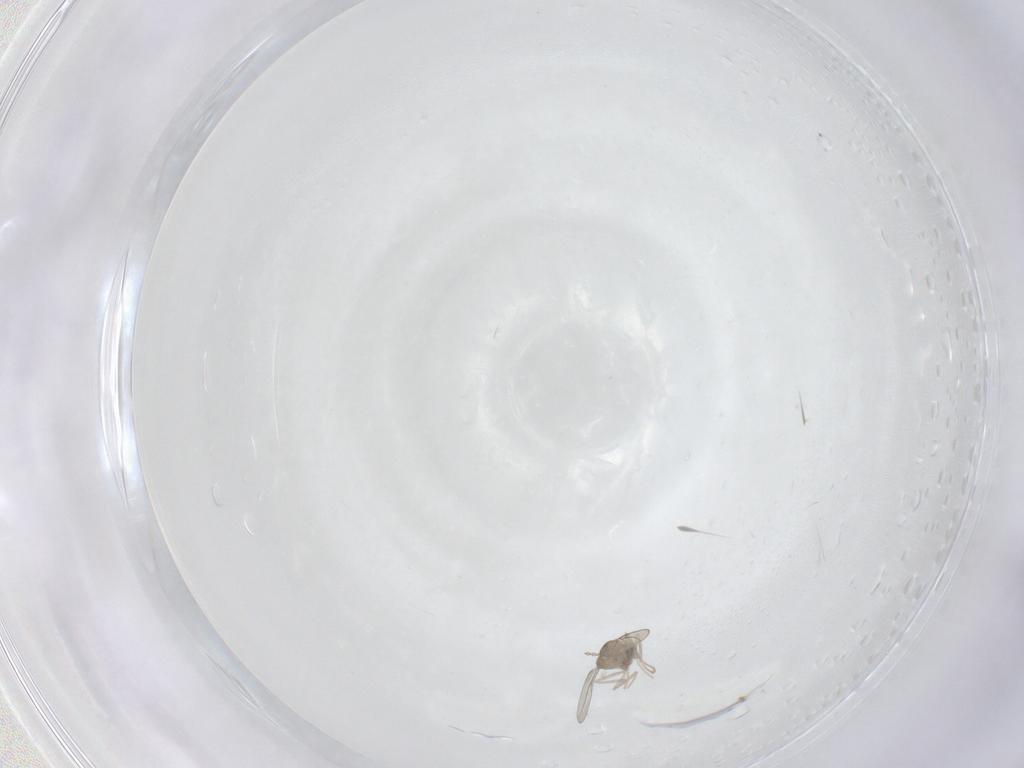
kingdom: Animalia
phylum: Arthropoda
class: Insecta
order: Diptera
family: Cecidomyiidae
